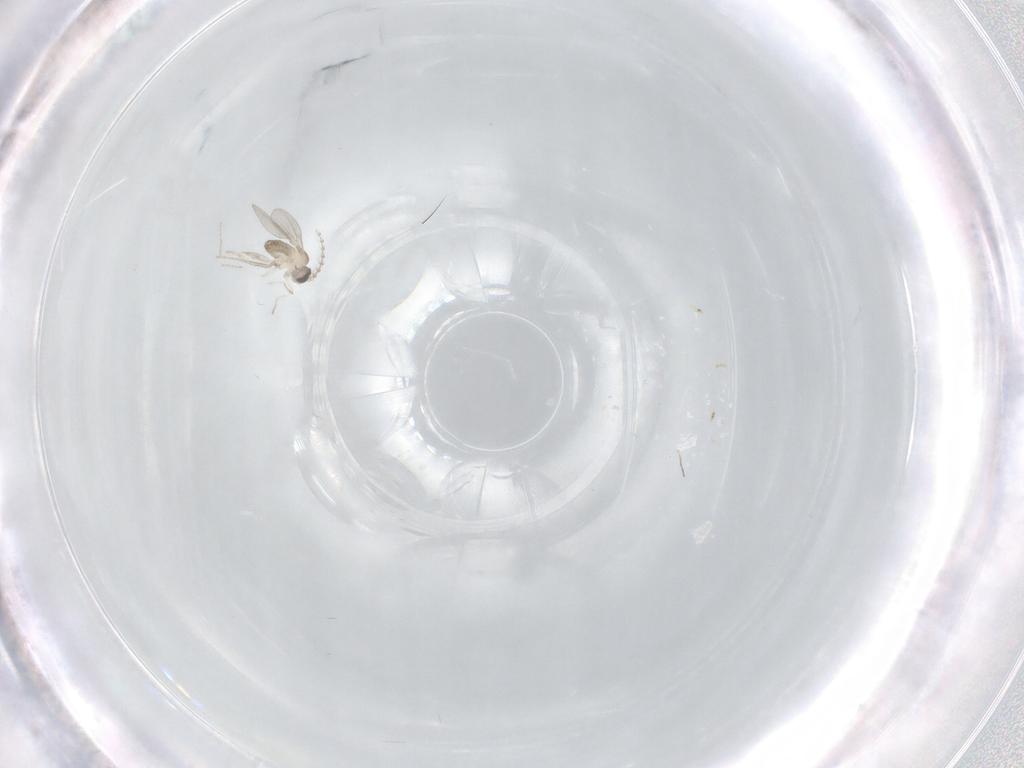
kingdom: Animalia
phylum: Arthropoda
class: Insecta
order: Diptera
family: Cecidomyiidae
